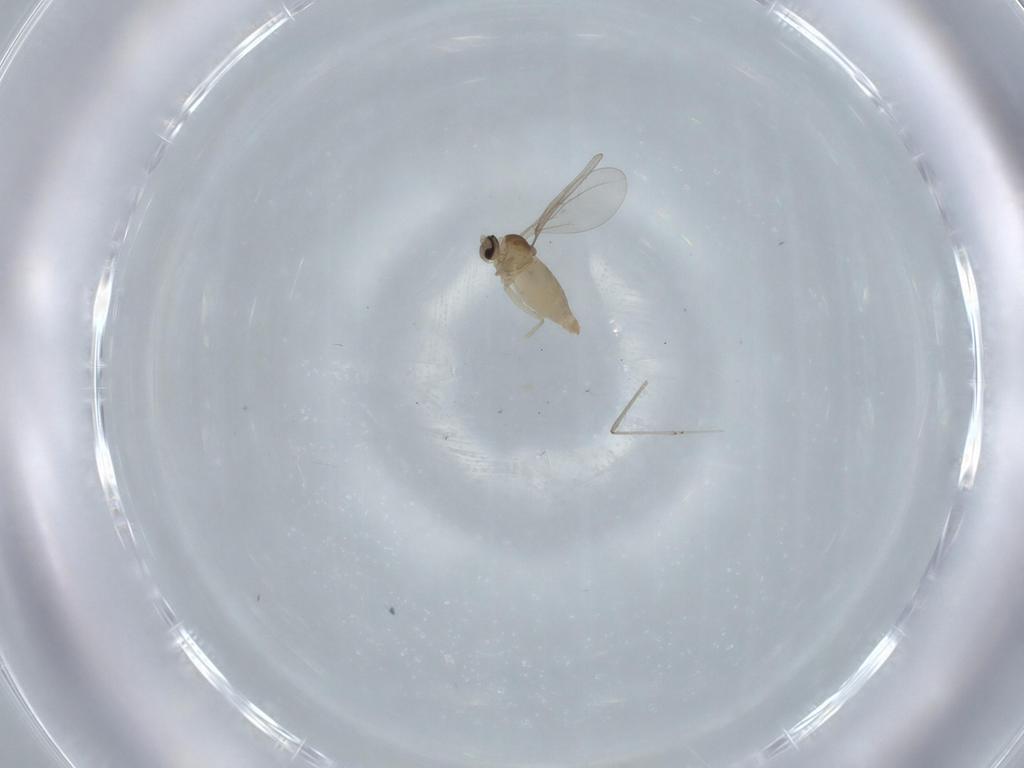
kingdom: Animalia
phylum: Arthropoda
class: Insecta
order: Diptera
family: Cecidomyiidae
